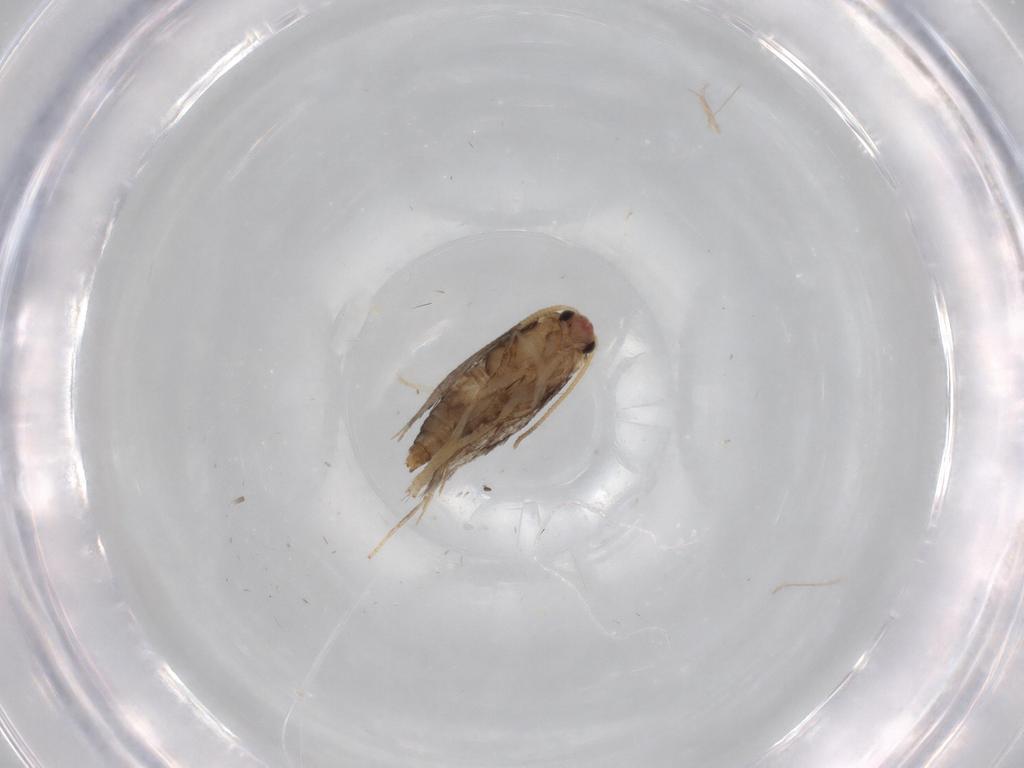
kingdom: Animalia
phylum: Arthropoda
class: Insecta
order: Lepidoptera
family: Nepticulidae
